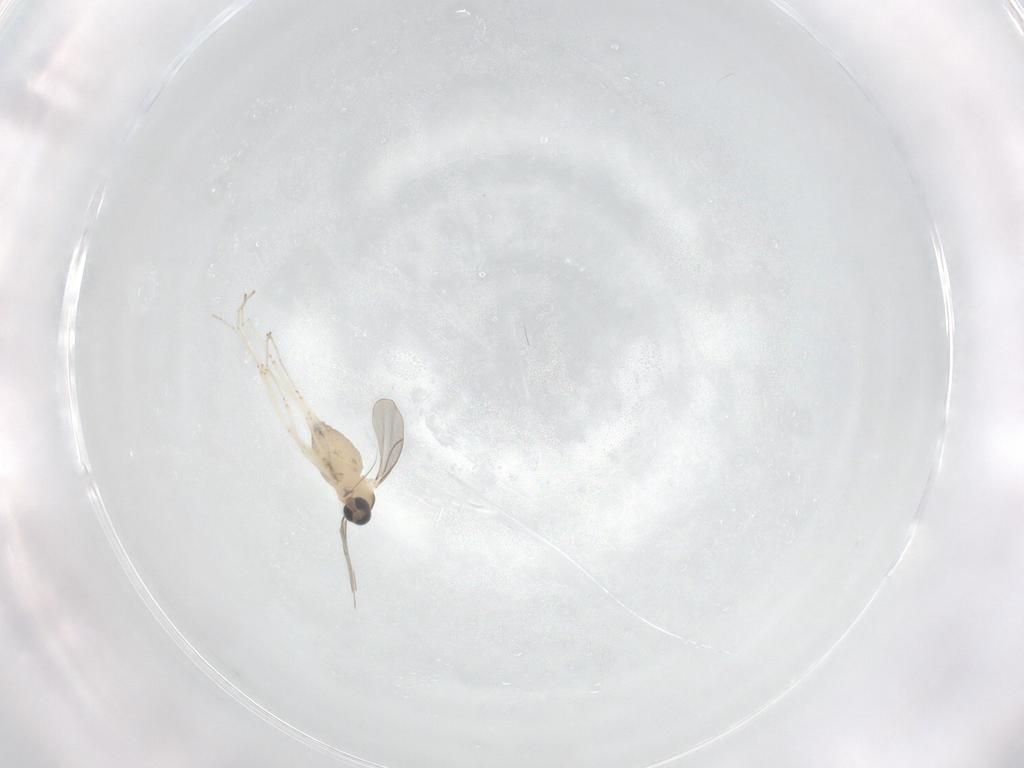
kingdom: Animalia
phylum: Arthropoda
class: Insecta
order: Diptera
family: Cecidomyiidae
